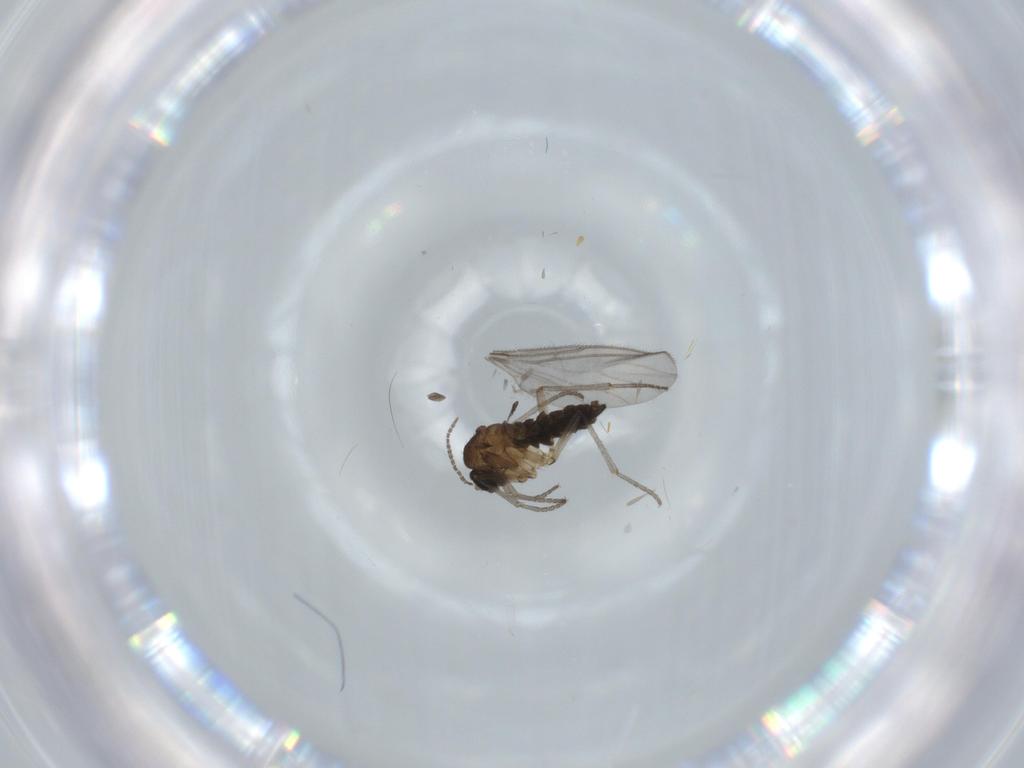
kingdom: Animalia
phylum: Arthropoda
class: Insecta
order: Diptera
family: Sciaridae
